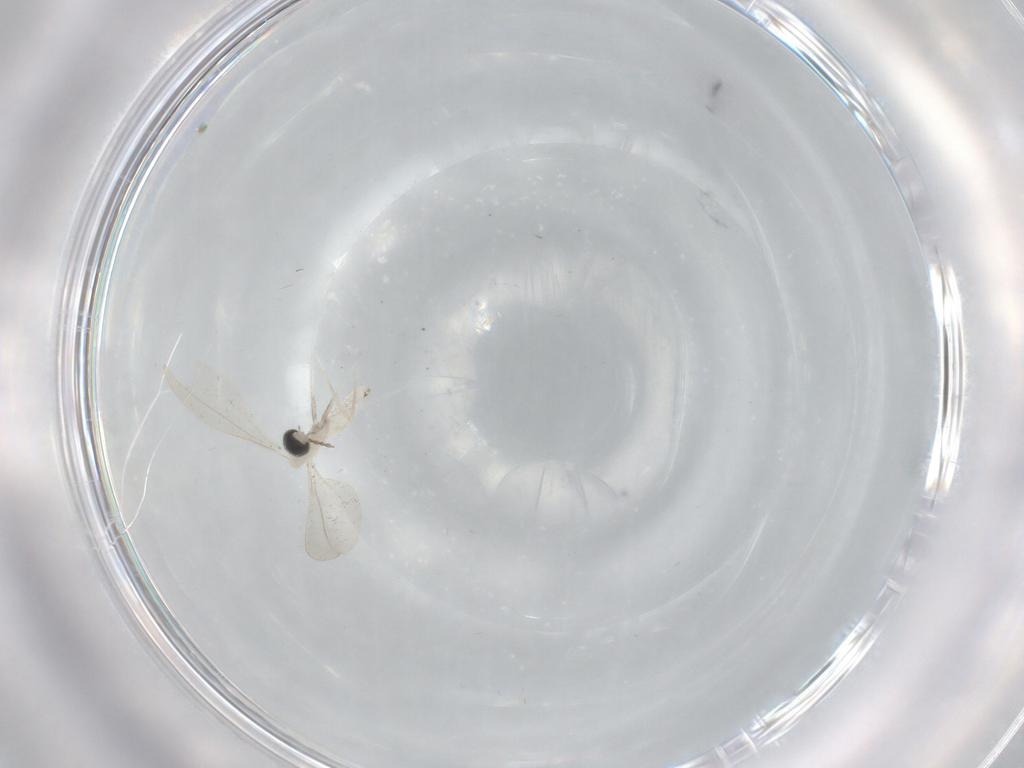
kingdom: Animalia
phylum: Arthropoda
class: Insecta
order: Diptera
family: Cecidomyiidae
